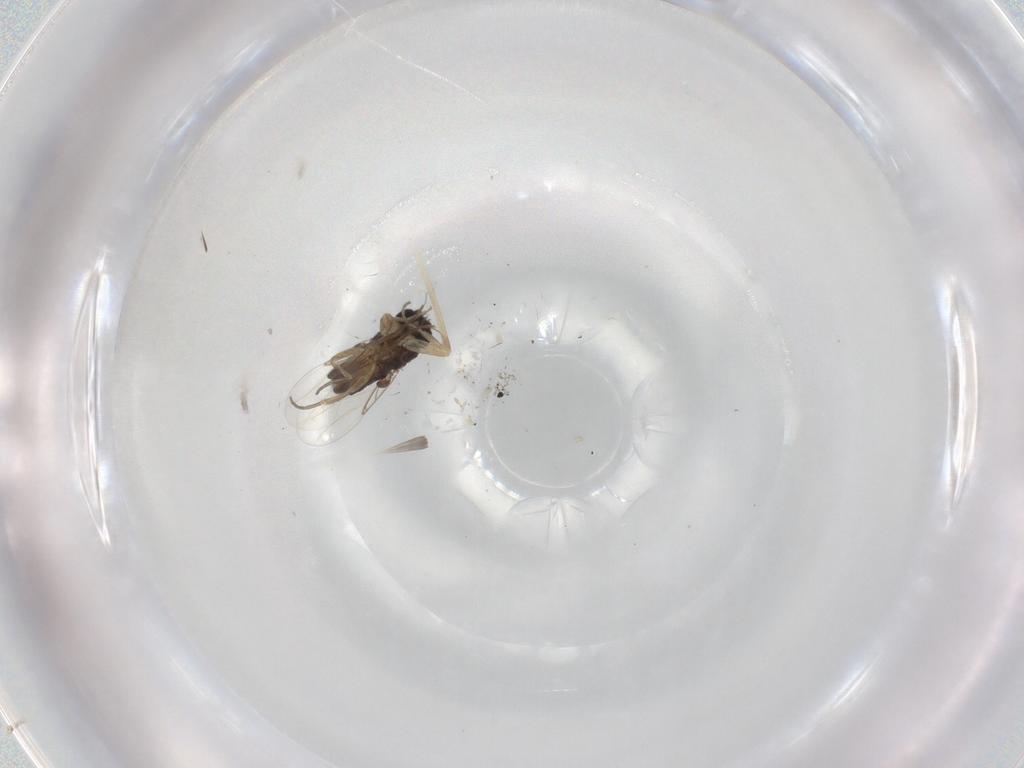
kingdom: Animalia
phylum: Arthropoda
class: Insecta
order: Diptera
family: Phoridae
